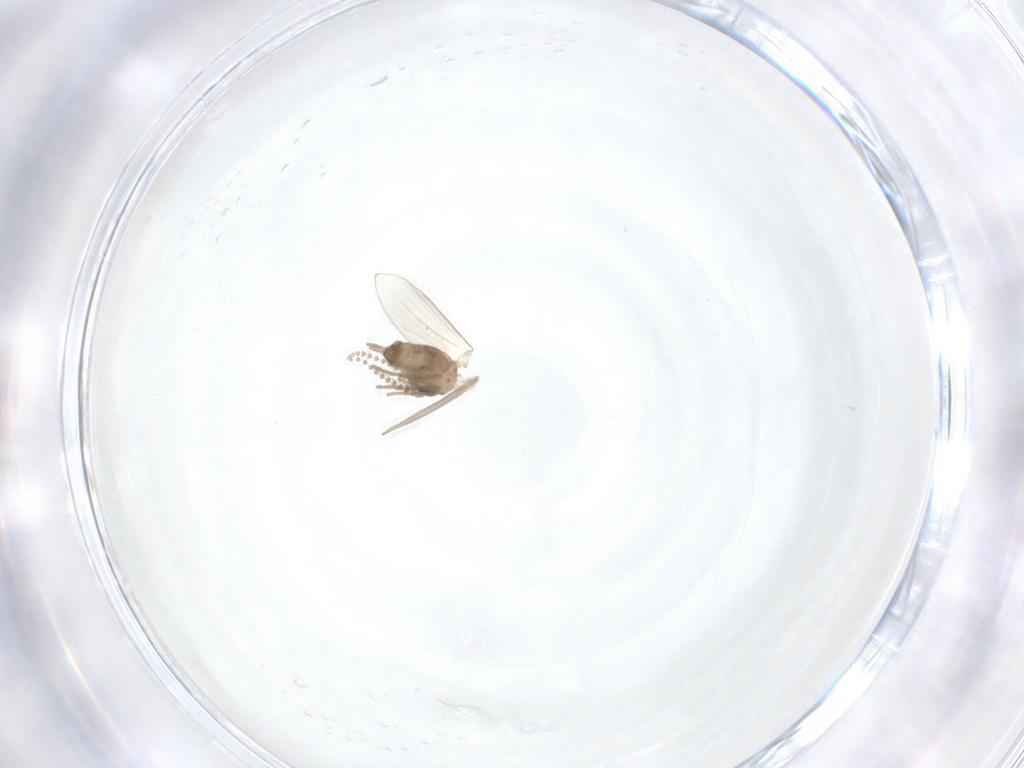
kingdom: Animalia
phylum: Arthropoda
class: Insecta
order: Diptera
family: Psychodidae
